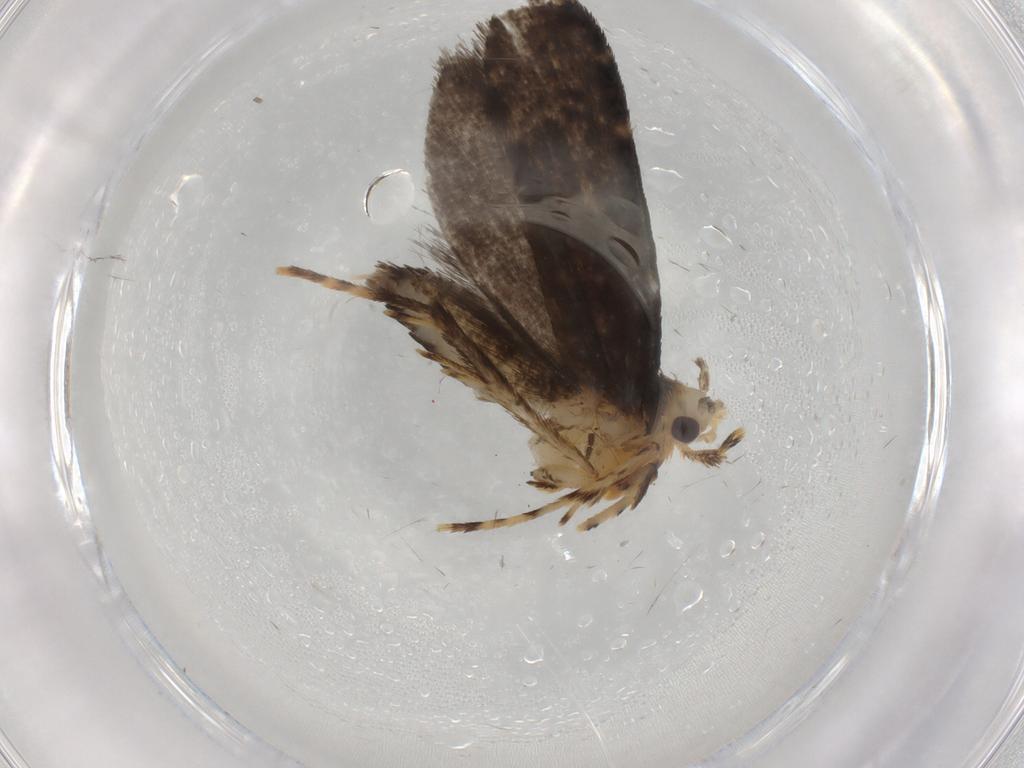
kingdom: Animalia
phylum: Arthropoda
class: Insecta
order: Lepidoptera
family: Tineidae
